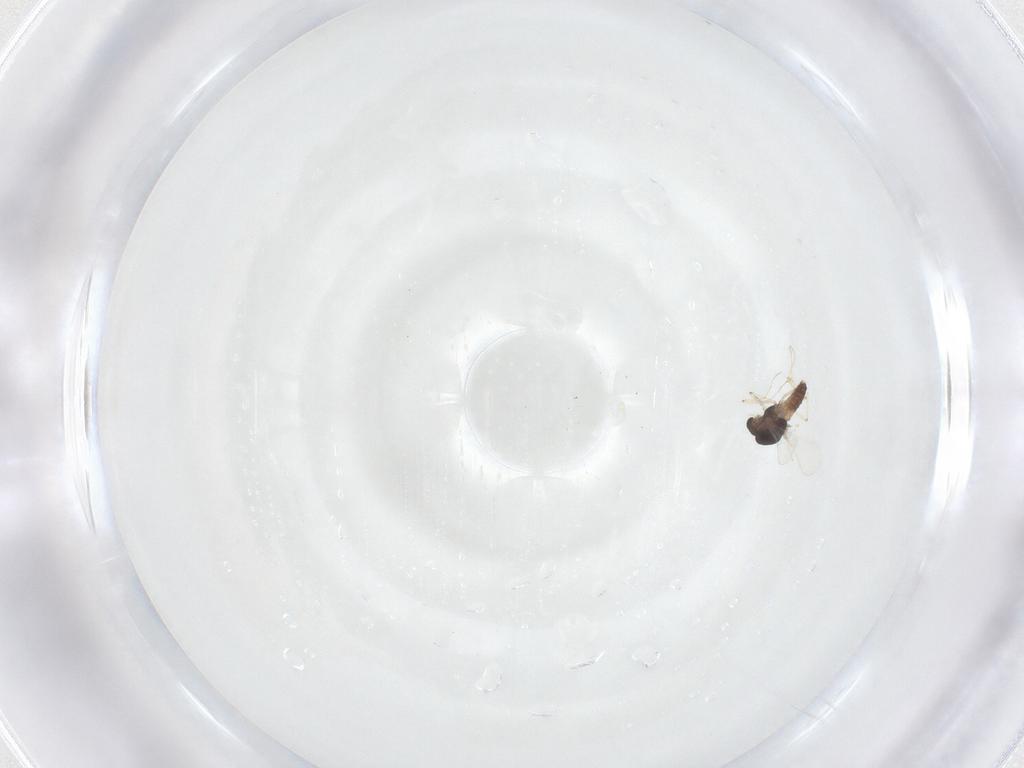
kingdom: Animalia
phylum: Arthropoda
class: Insecta
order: Diptera
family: Chironomidae
